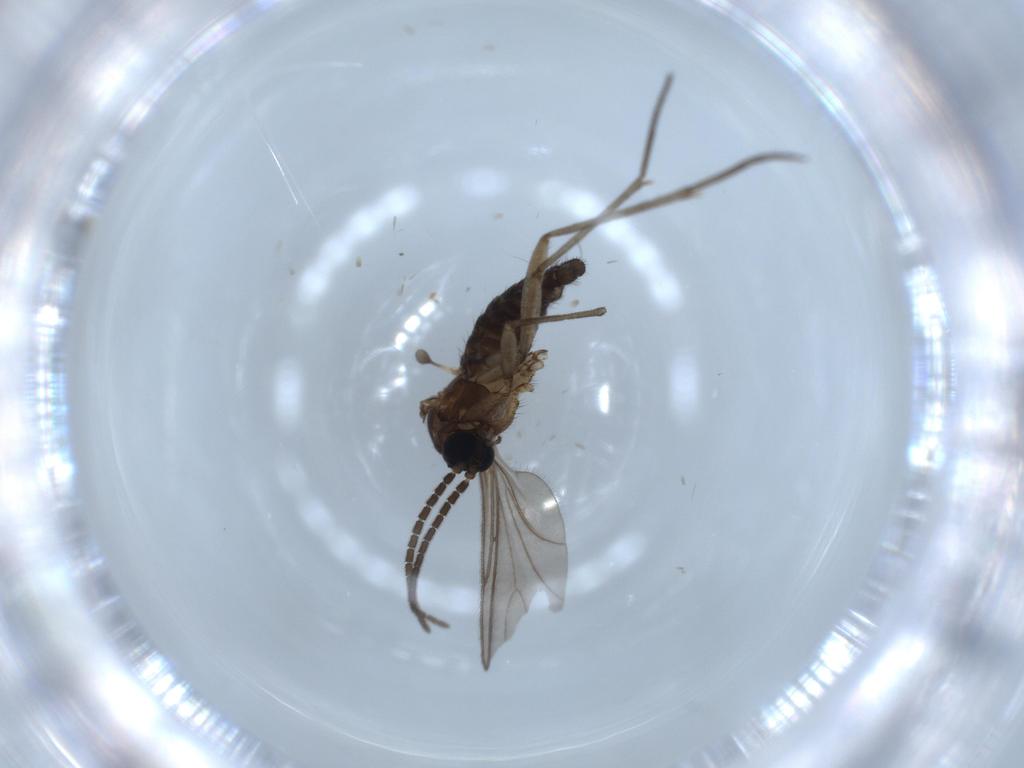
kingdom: Animalia
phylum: Arthropoda
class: Insecta
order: Diptera
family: Sciaridae
